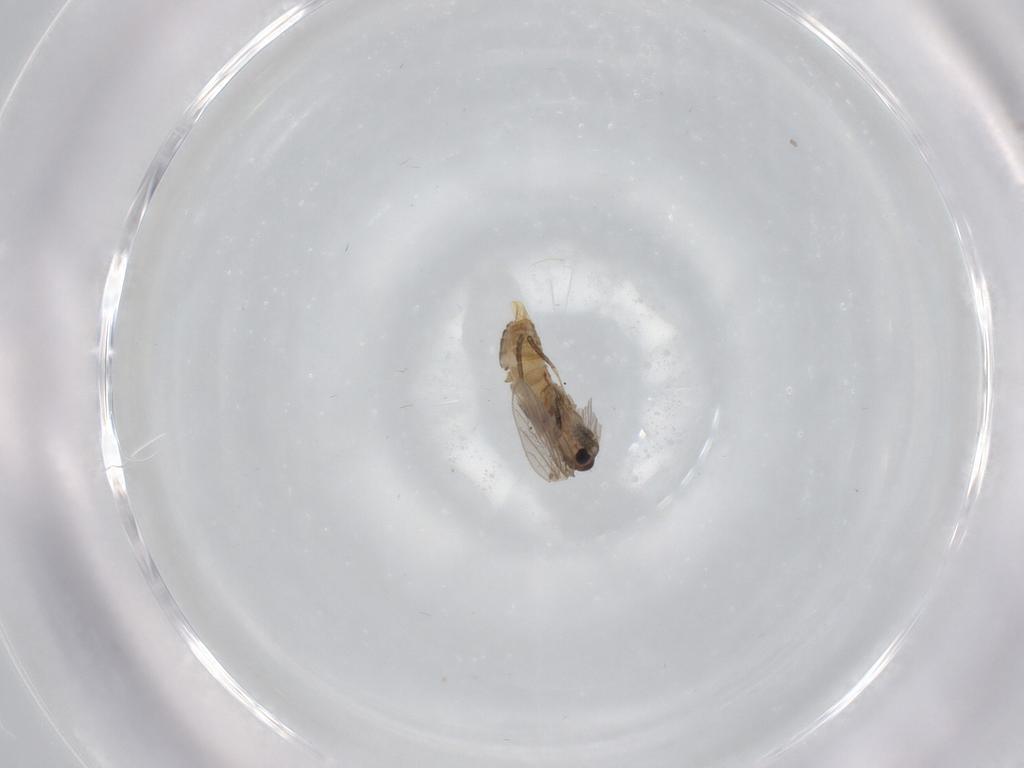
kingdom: Animalia
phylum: Arthropoda
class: Insecta
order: Diptera
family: Psychodidae
